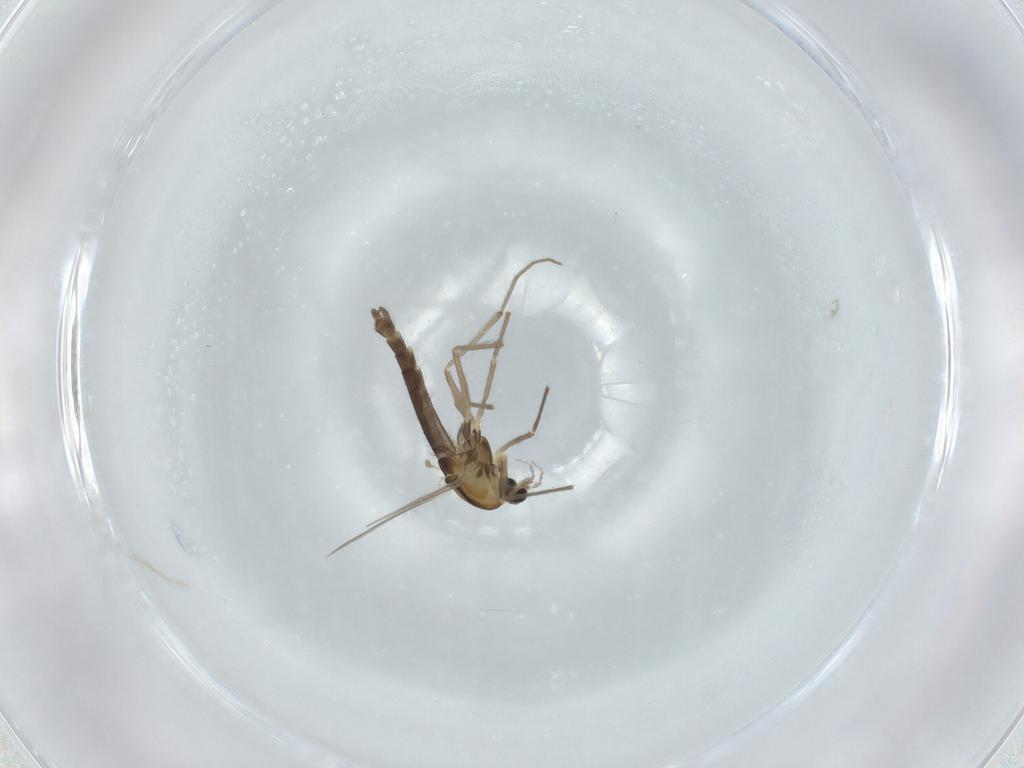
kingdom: Animalia
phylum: Arthropoda
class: Insecta
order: Diptera
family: Chironomidae
